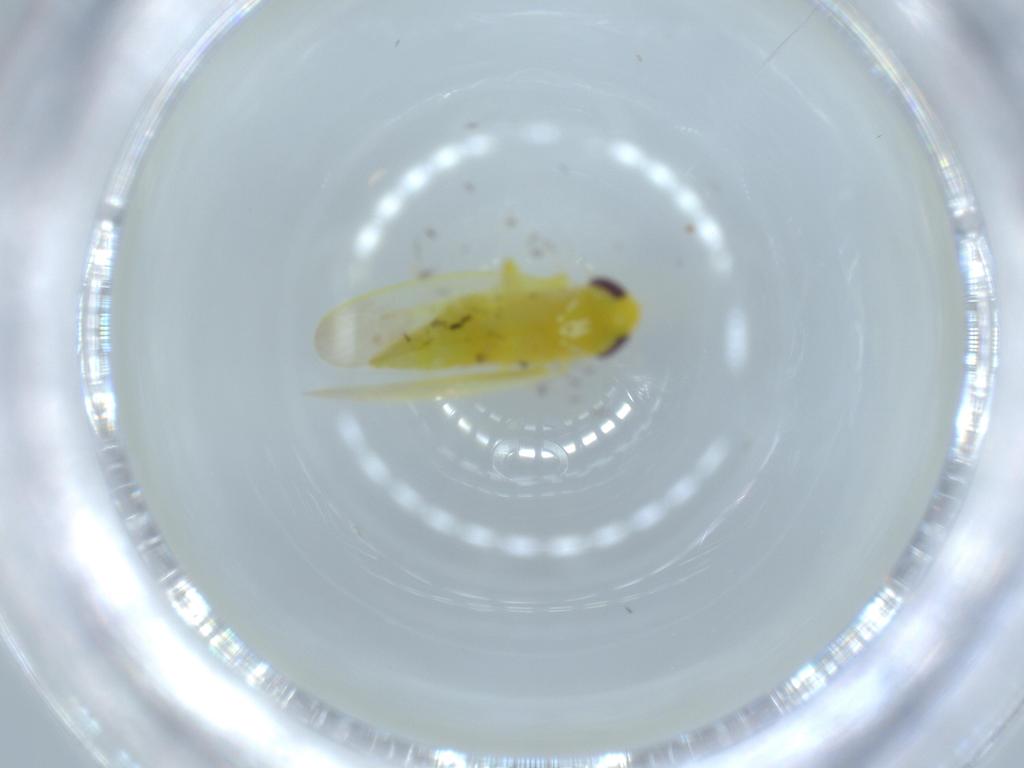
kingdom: Animalia
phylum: Arthropoda
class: Insecta
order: Hemiptera
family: Cicadellidae
